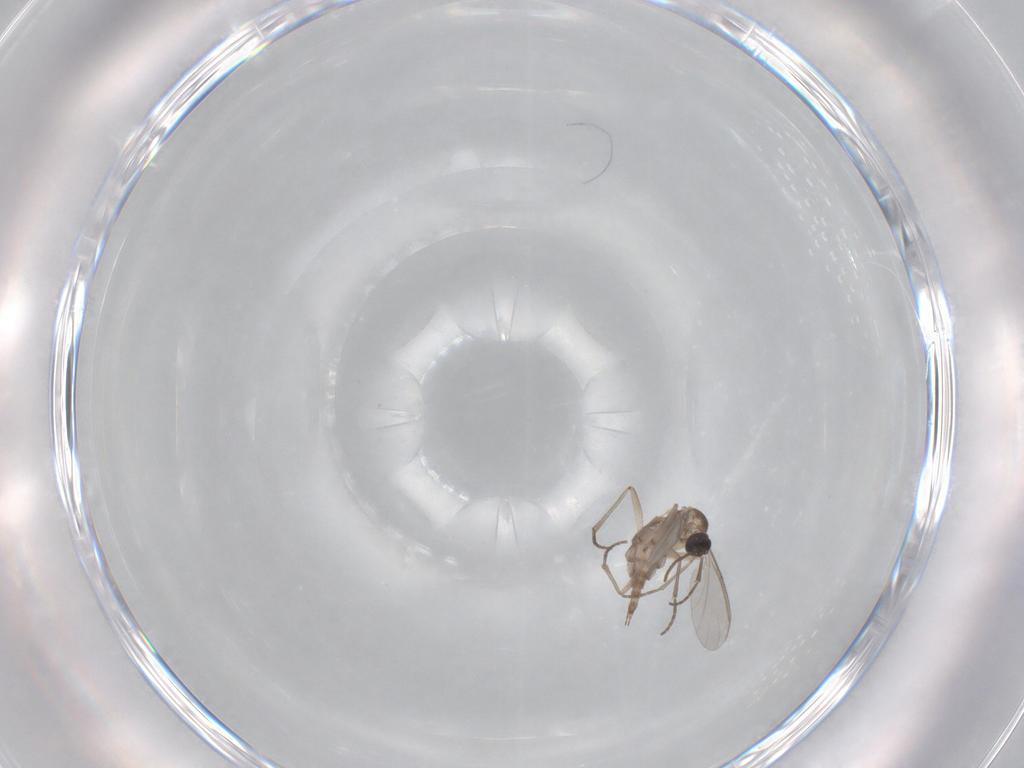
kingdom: Animalia
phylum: Arthropoda
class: Insecta
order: Diptera
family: Sciaridae
